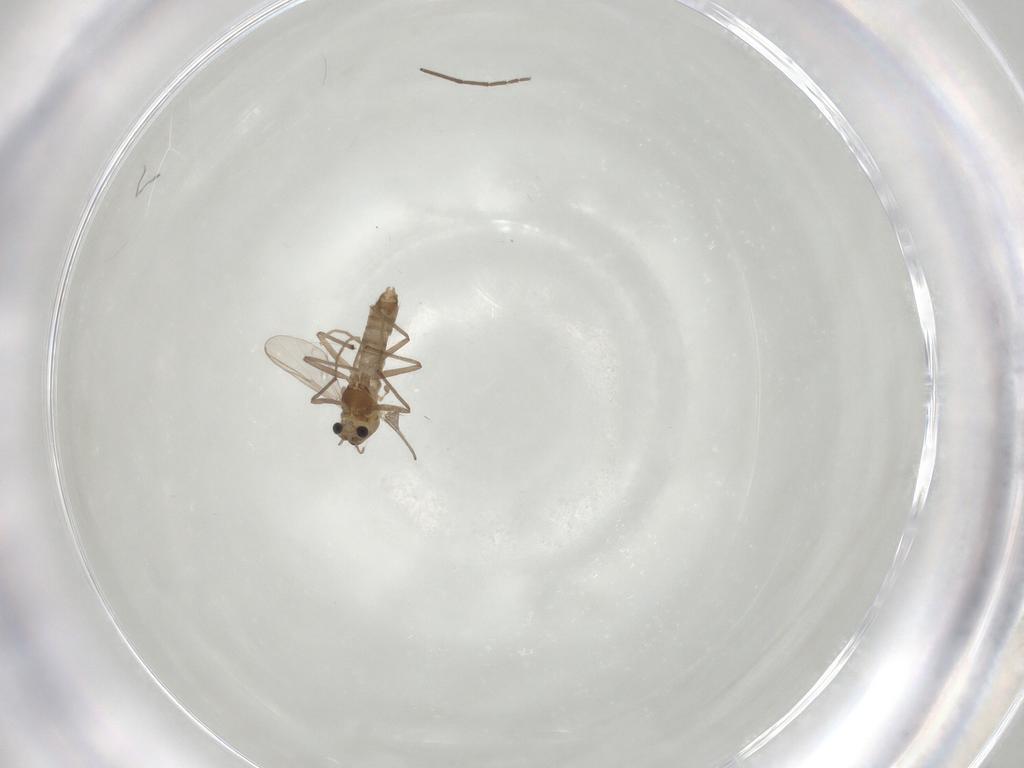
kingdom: Animalia
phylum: Arthropoda
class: Insecta
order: Diptera
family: Chironomidae
